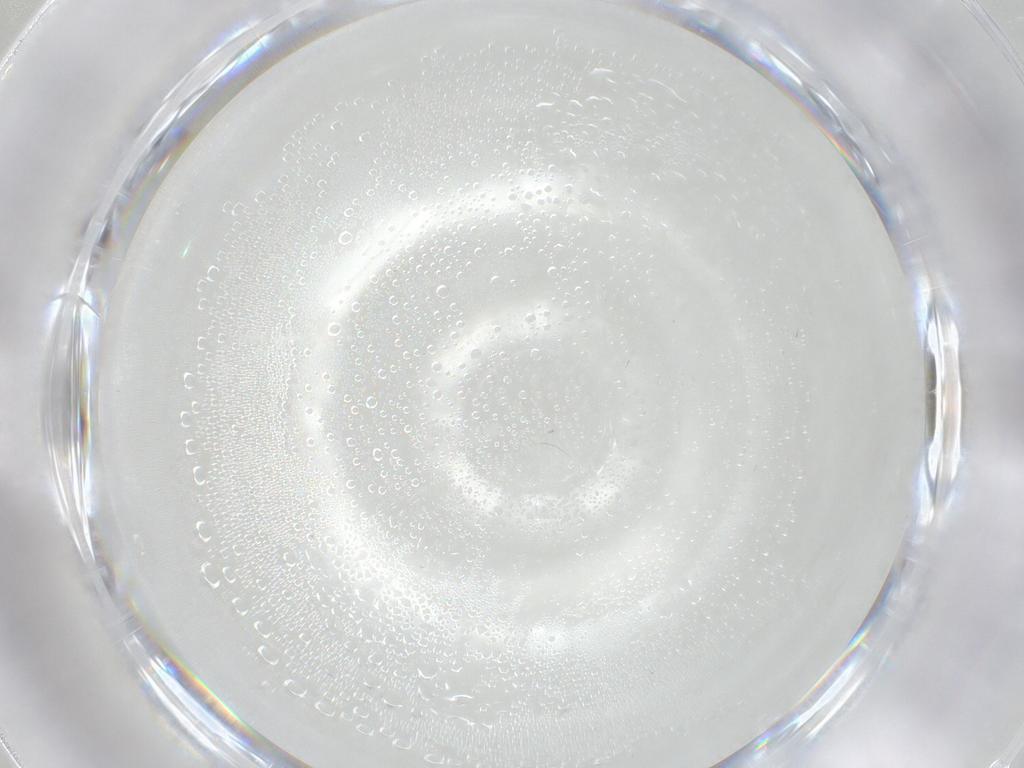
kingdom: Animalia
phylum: Arthropoda
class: Insecta
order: Diptera
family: Cecidomyiidae
